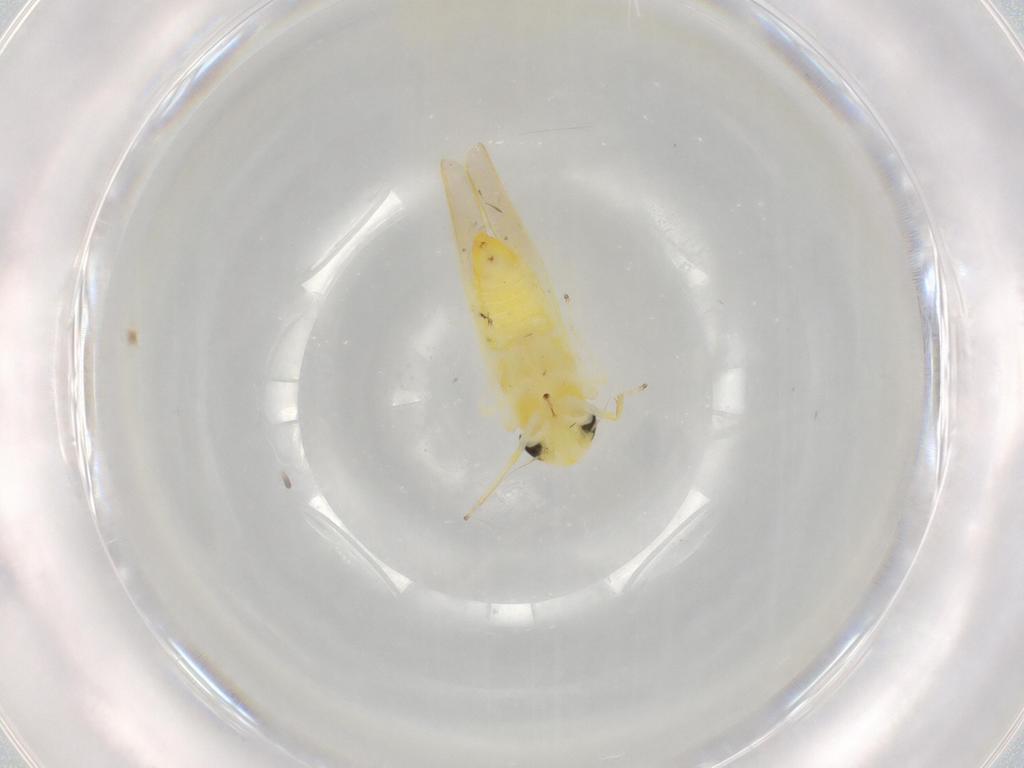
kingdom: Animalia
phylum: Arthropoda
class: Insecta
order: Hemiptera
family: Cicadellidae
